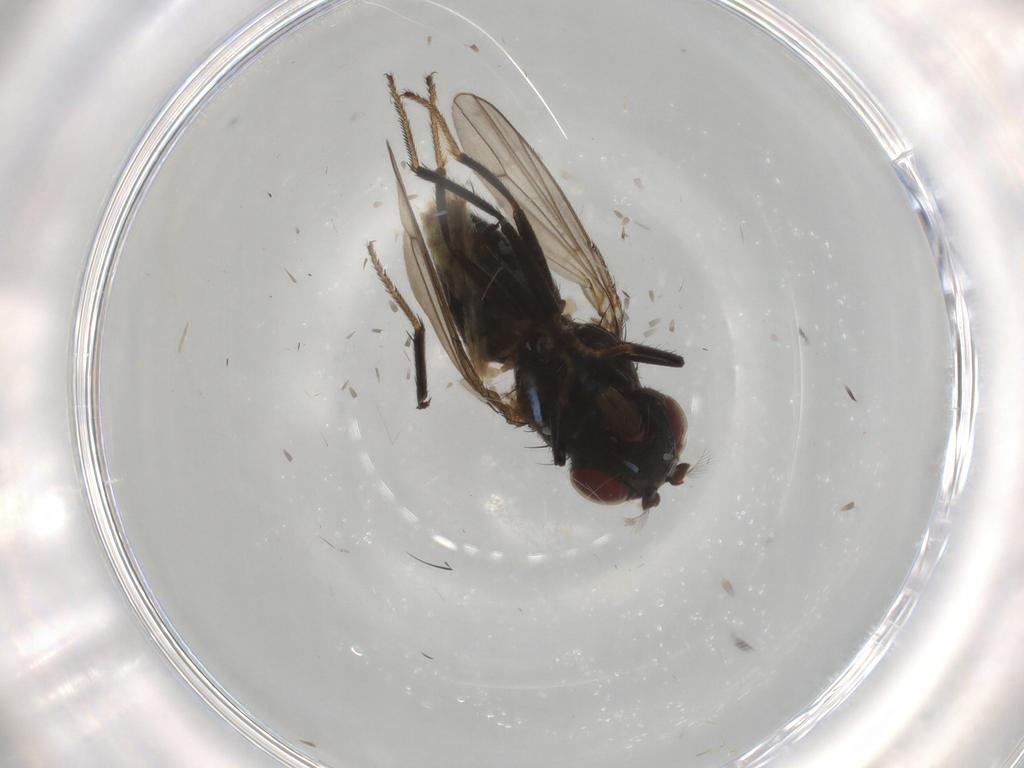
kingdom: Animalia
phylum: Arthropoda
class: Insecta
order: Diptera
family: Ephydridae
